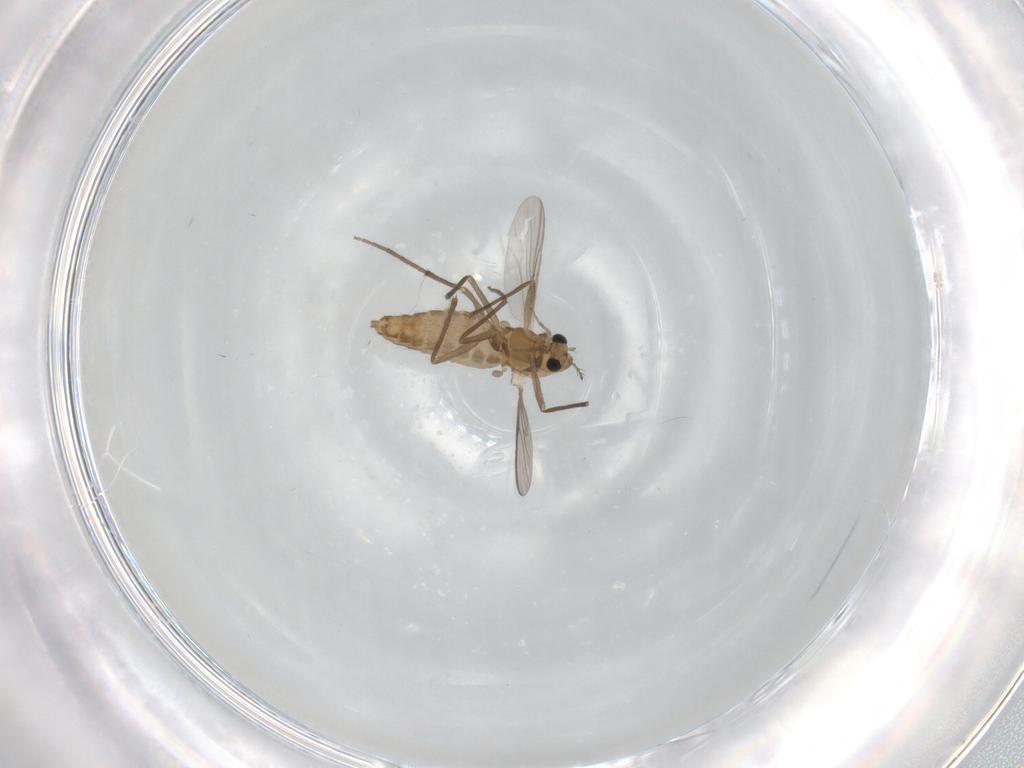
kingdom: Animalia
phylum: Arthropoda
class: Insecta
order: Diptera
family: Chironomidae
